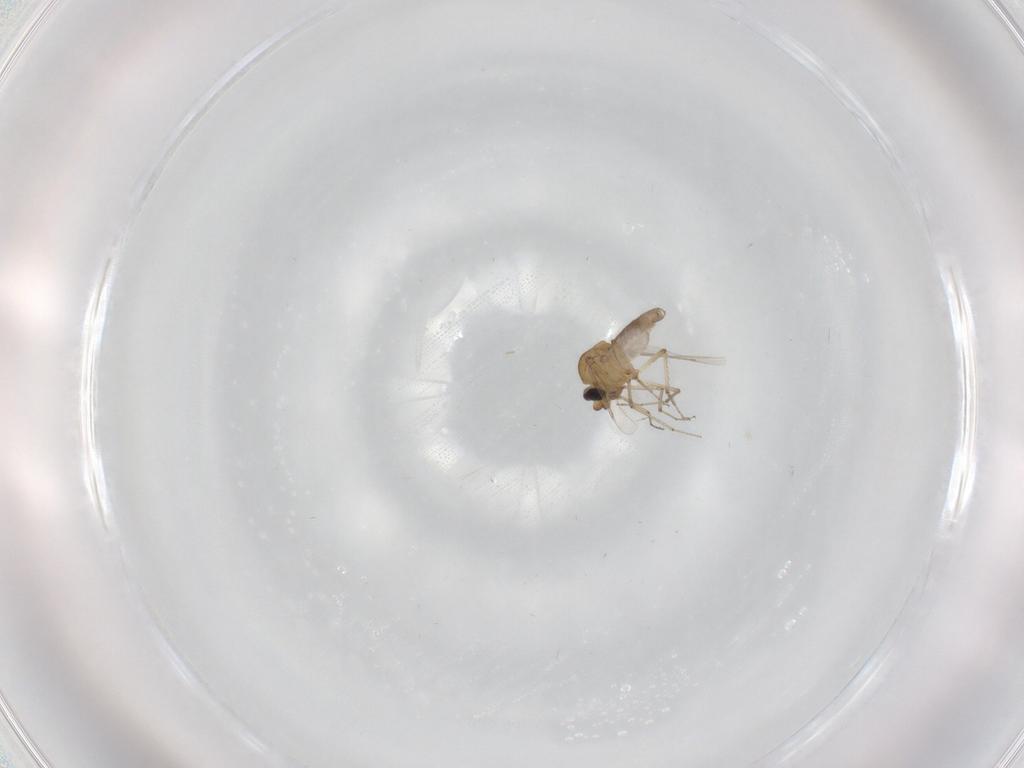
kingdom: Animalia
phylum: Arthropoda
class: Insecta
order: Diptera
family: Ceratopogonidae
